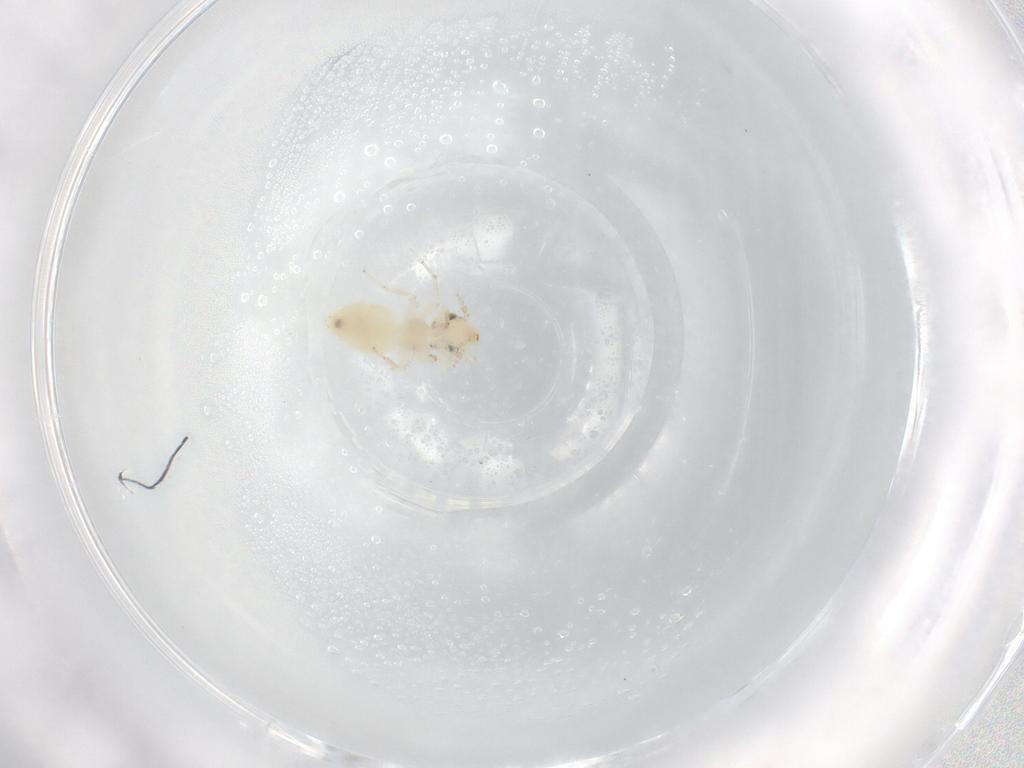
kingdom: Animalia
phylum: Arthropoda
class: Insecta
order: Psocodea
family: Lepidopsocidae
